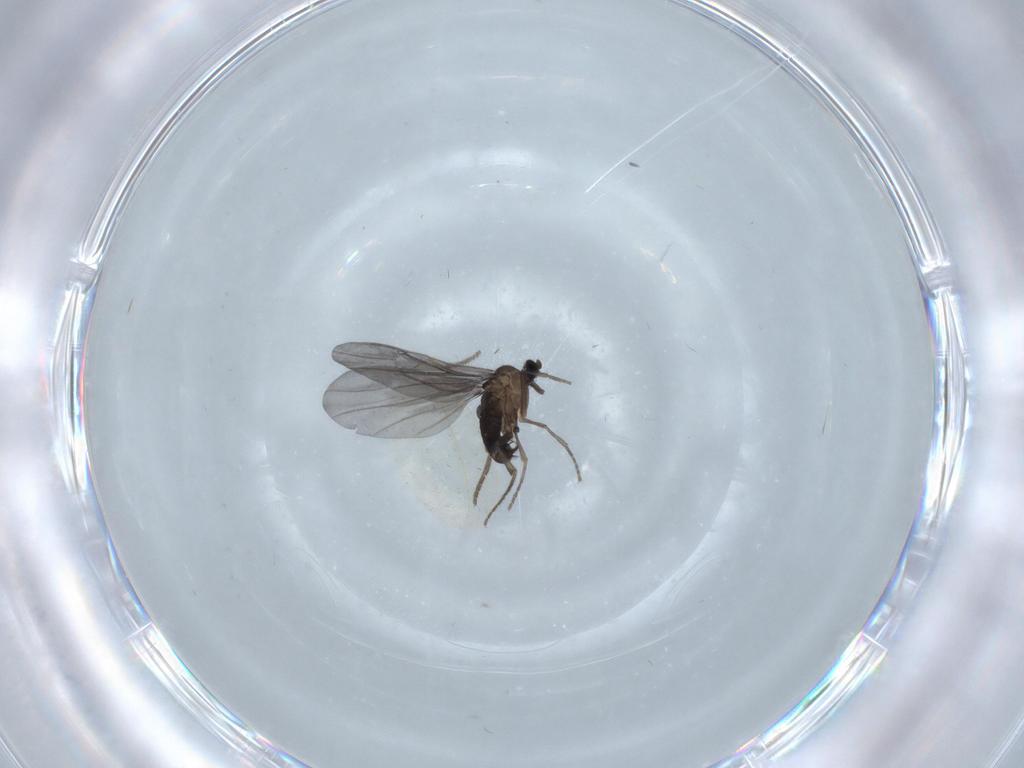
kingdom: Animalia
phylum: Arthropoda
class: Insecta
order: Diptera
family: Phoridae
